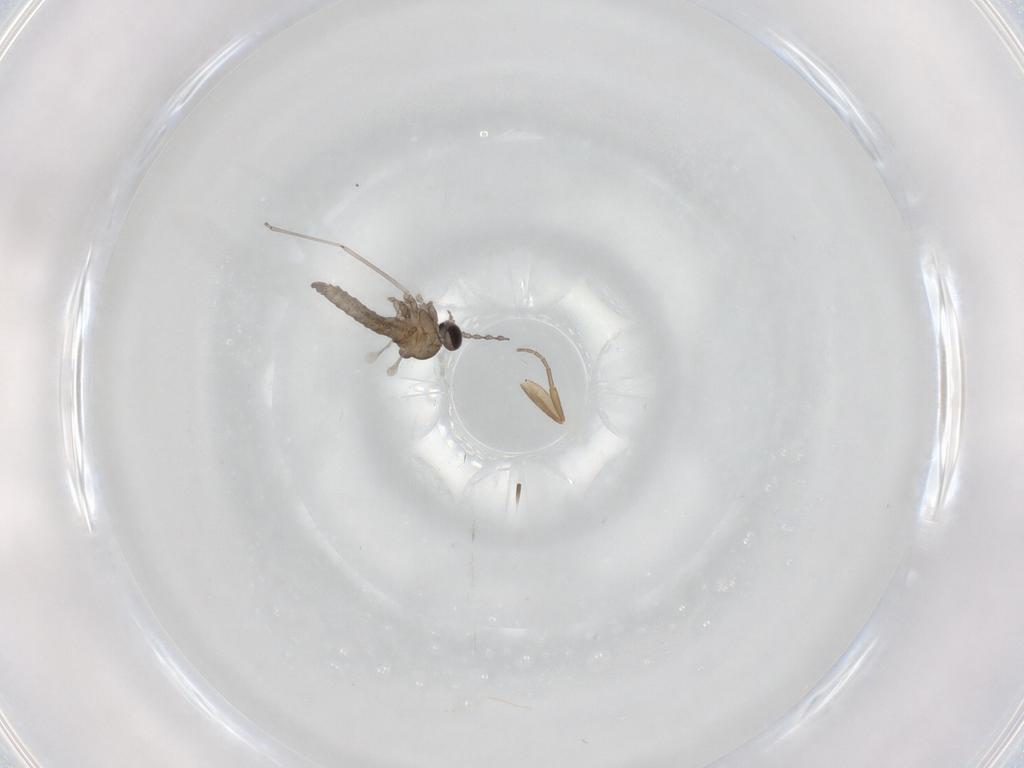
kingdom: Animalia
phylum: Arthropoda
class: Insecta
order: Diptera
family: Cecidomyiidae
